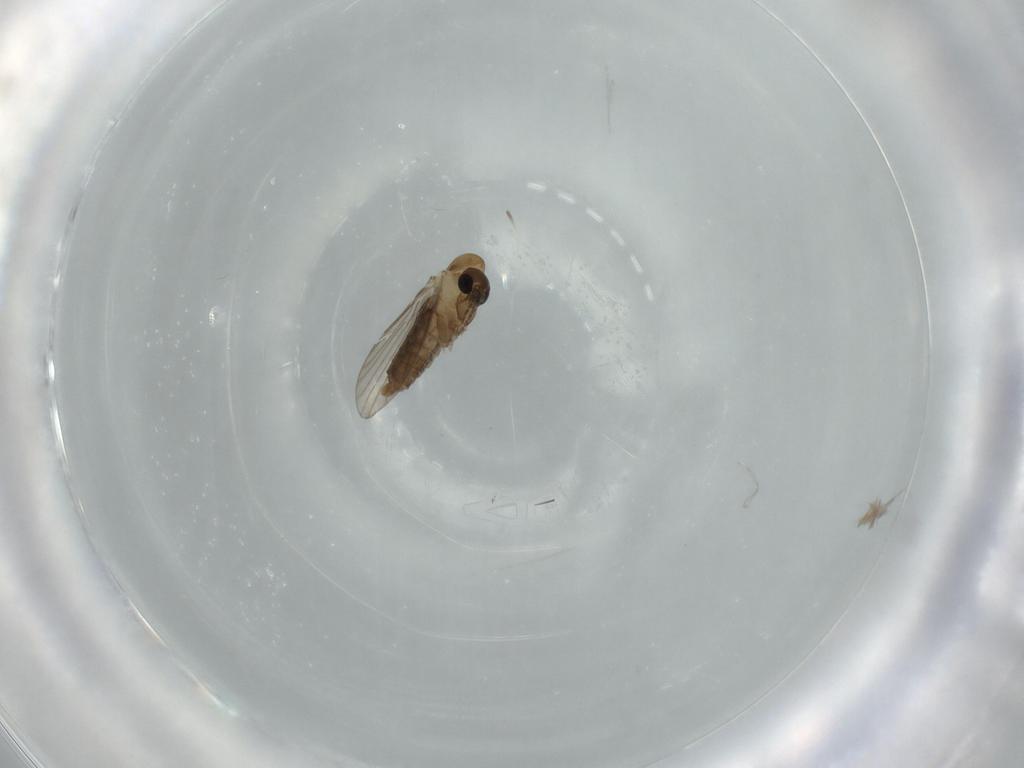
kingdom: Animalia
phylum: Arthropoda
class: Insecta
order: Diptera
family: Psychodidae
